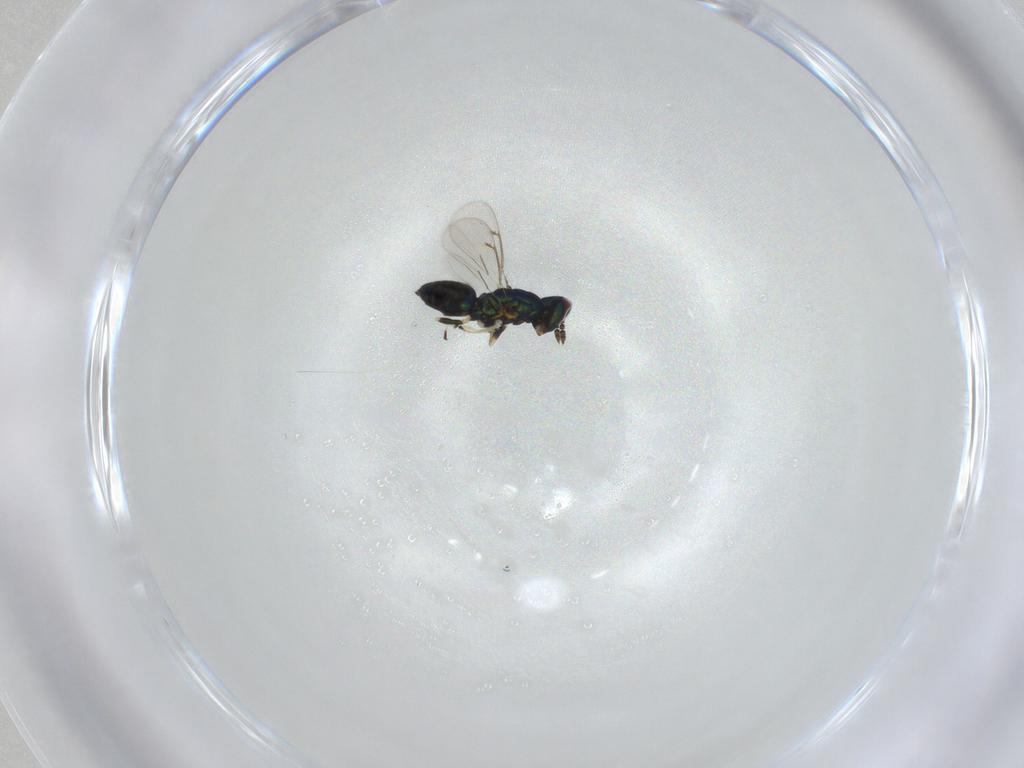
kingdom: Animalia
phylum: Arthropoda
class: Insecta
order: Hymenoptera
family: Eulophidae
